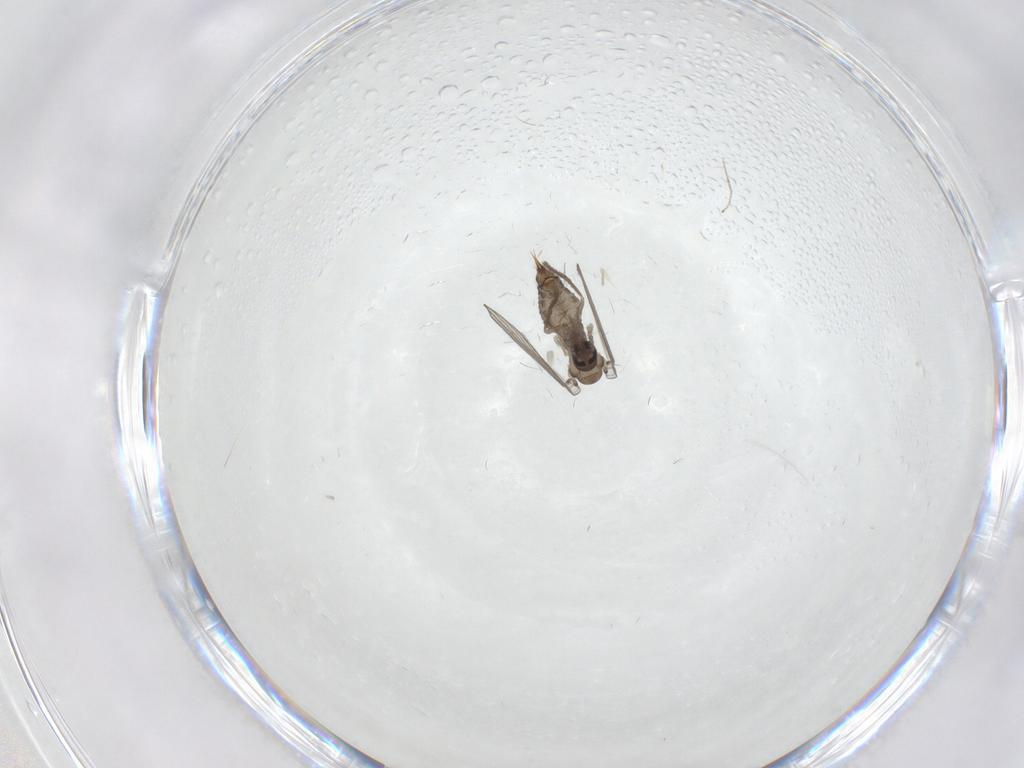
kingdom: Animalia
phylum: Arthropoda
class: Insecta
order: Diptera
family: Psychodidae
